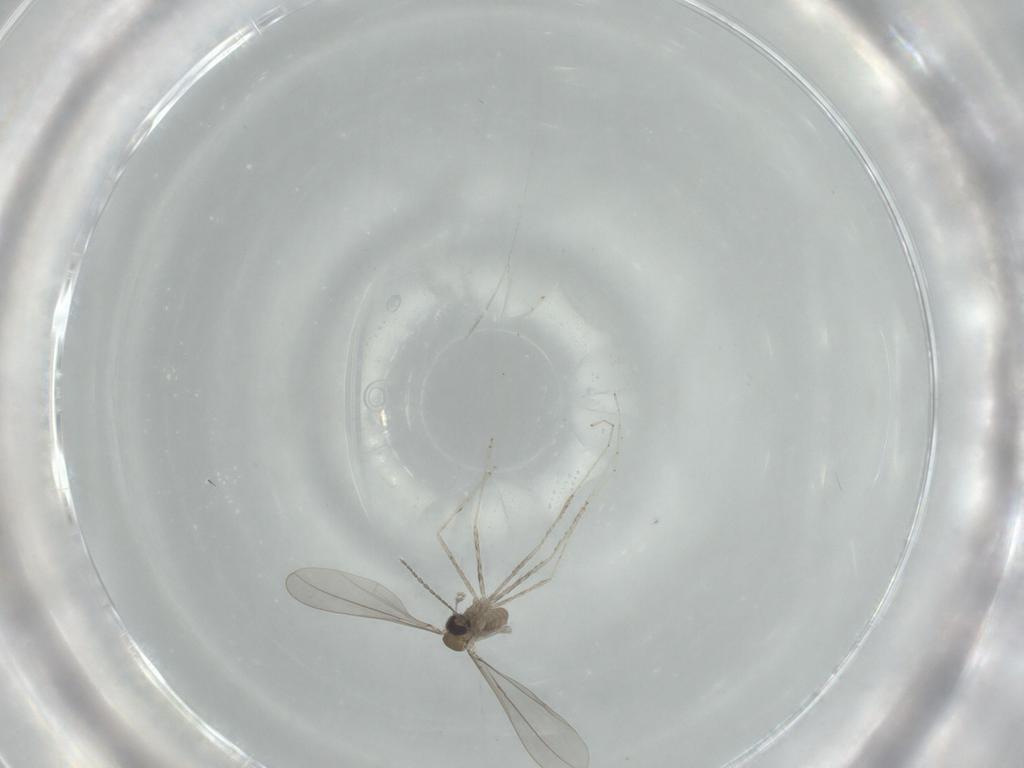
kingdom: Animalia
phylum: Arthropoda
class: Insecta
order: Diptera
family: Cecidomyiidae
